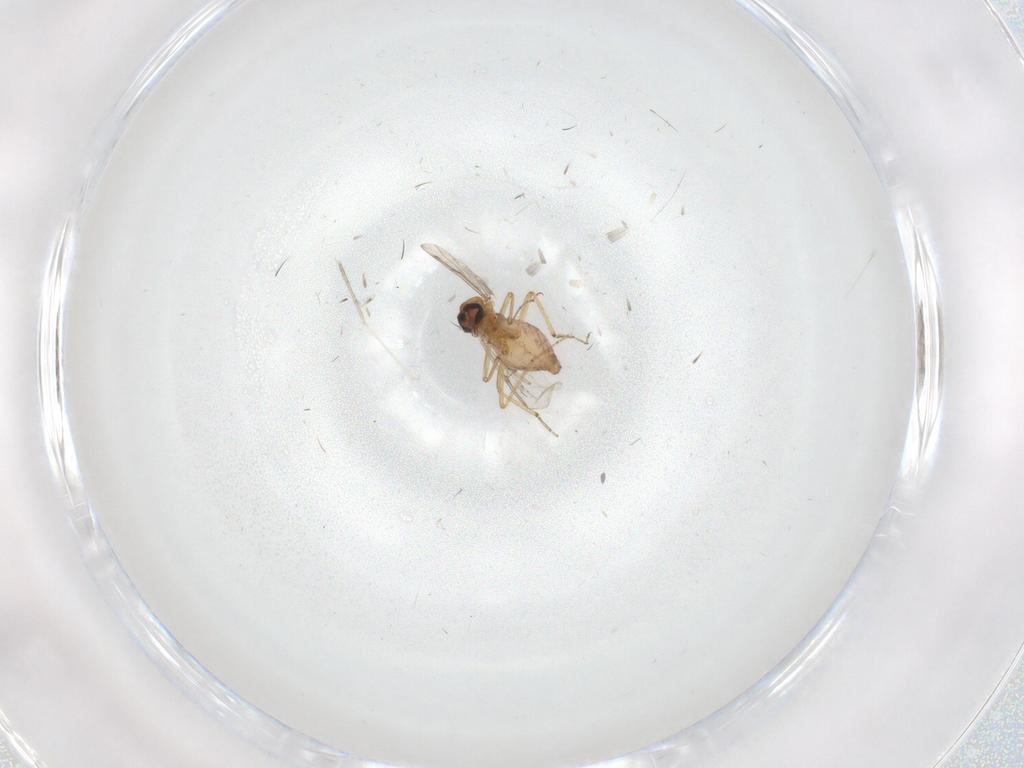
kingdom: Animalia
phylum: Arthropoda
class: Insecta
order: Diptera
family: Cecidomyiidae
